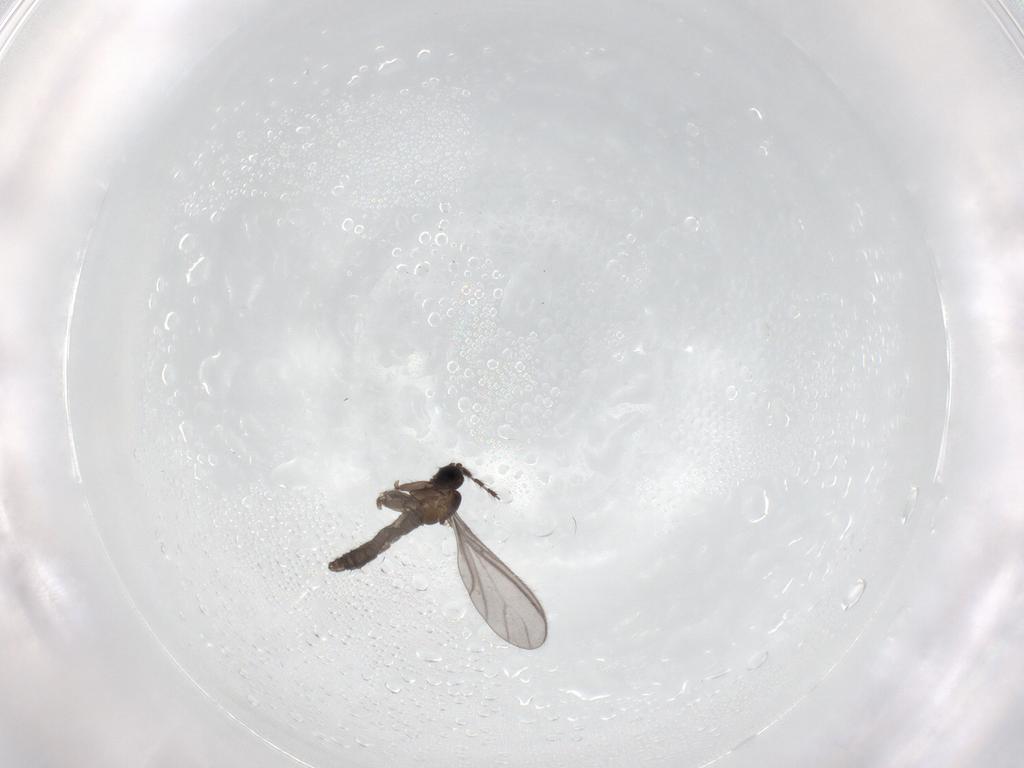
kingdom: Animalia
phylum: Arthropoda
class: Insecta
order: Diptera
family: Sciaridae
